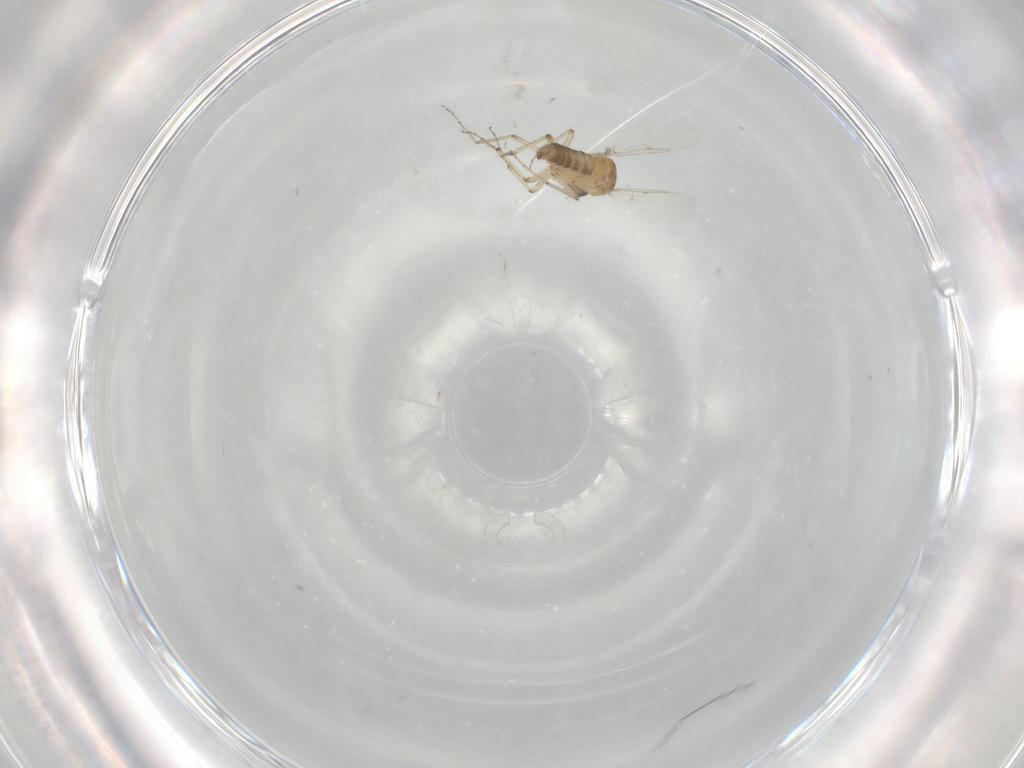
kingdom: Animalia
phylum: Arthropoda
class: Insecta
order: Diptera
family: Ceratopogonidae
